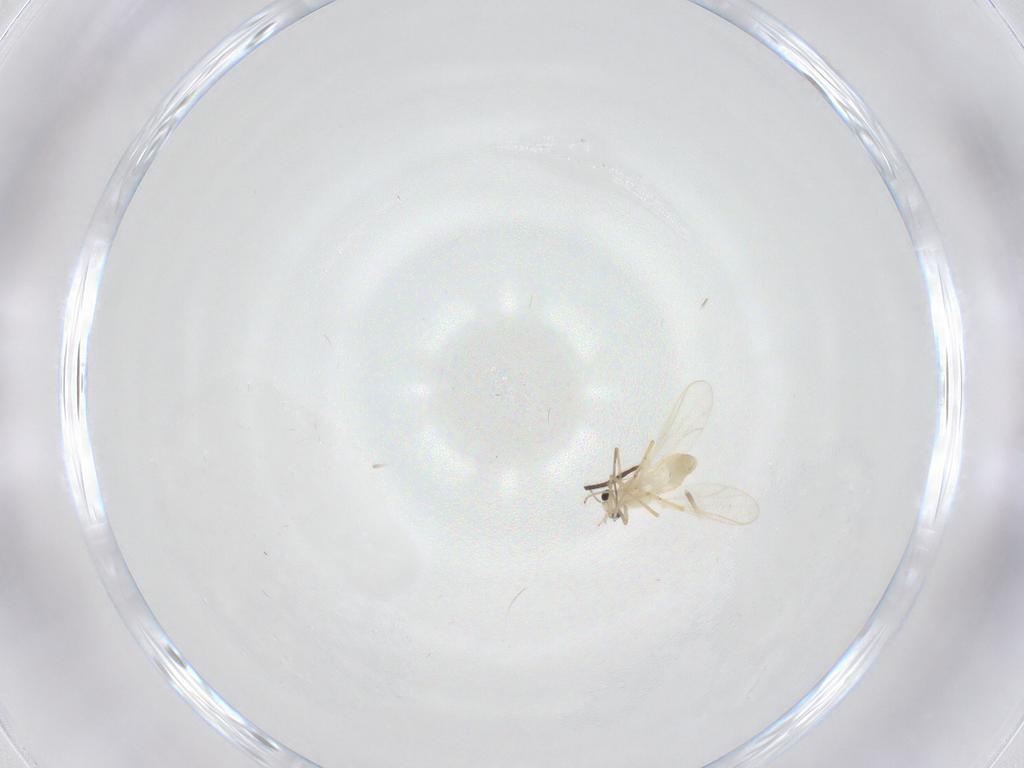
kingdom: Animalia
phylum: Arthropoda
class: Insecta
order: Diptera
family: Chironomidae
